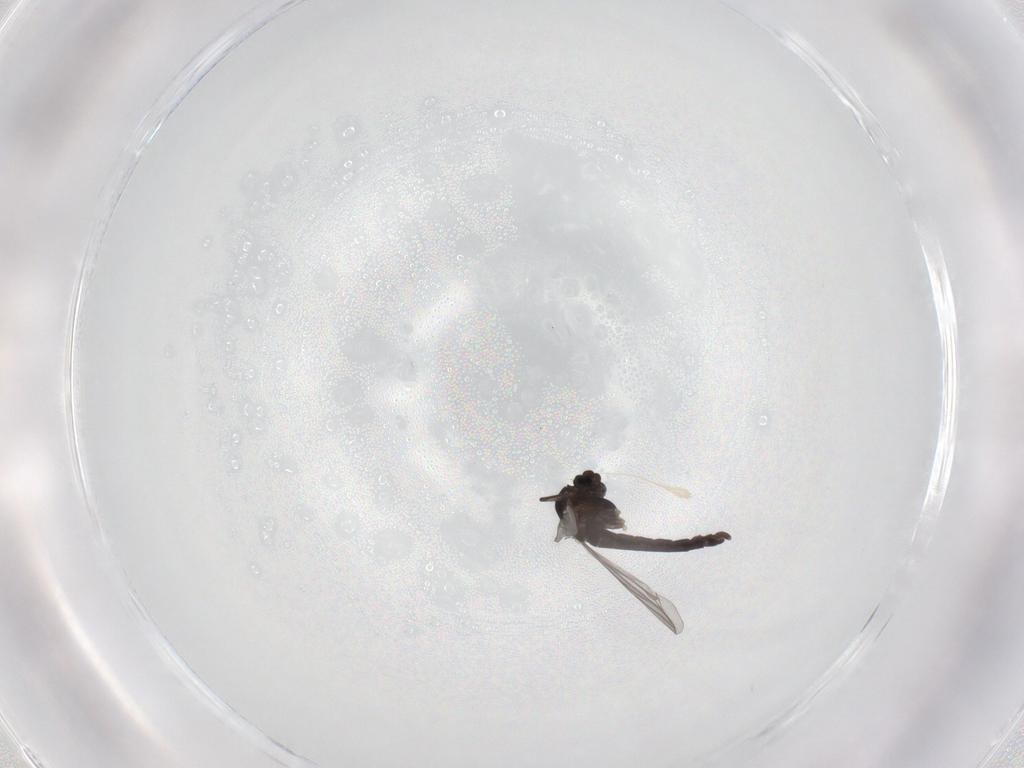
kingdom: Animalia
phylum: Arthropoda
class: Insecta
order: Diptera
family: Chironomidae
